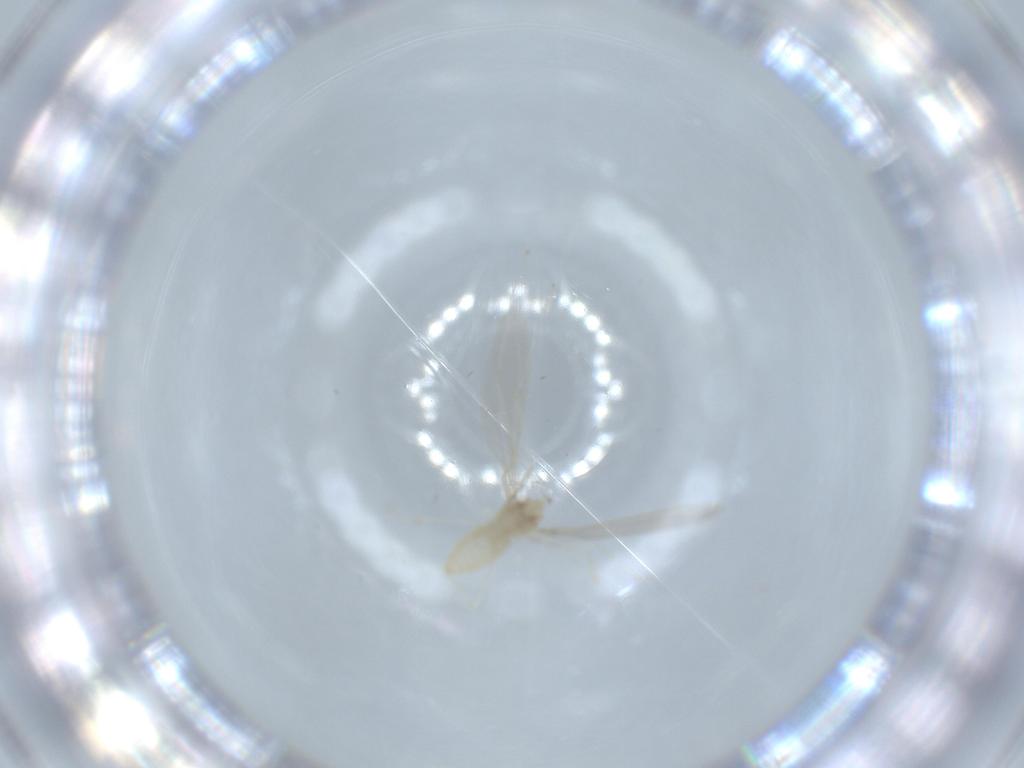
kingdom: Animalia
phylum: Arthropoda
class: Insecta
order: Diptera
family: Cecidomyiidae
